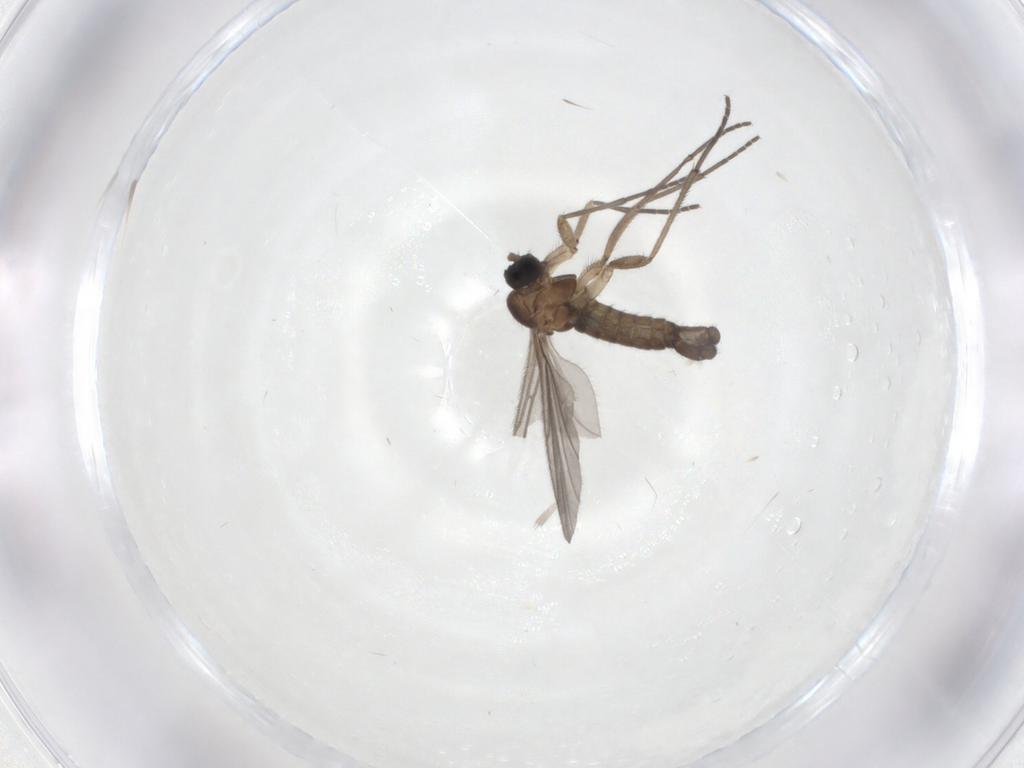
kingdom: Animalia
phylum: Arthropoda
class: Insecta
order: Diptera
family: Sciaridae
